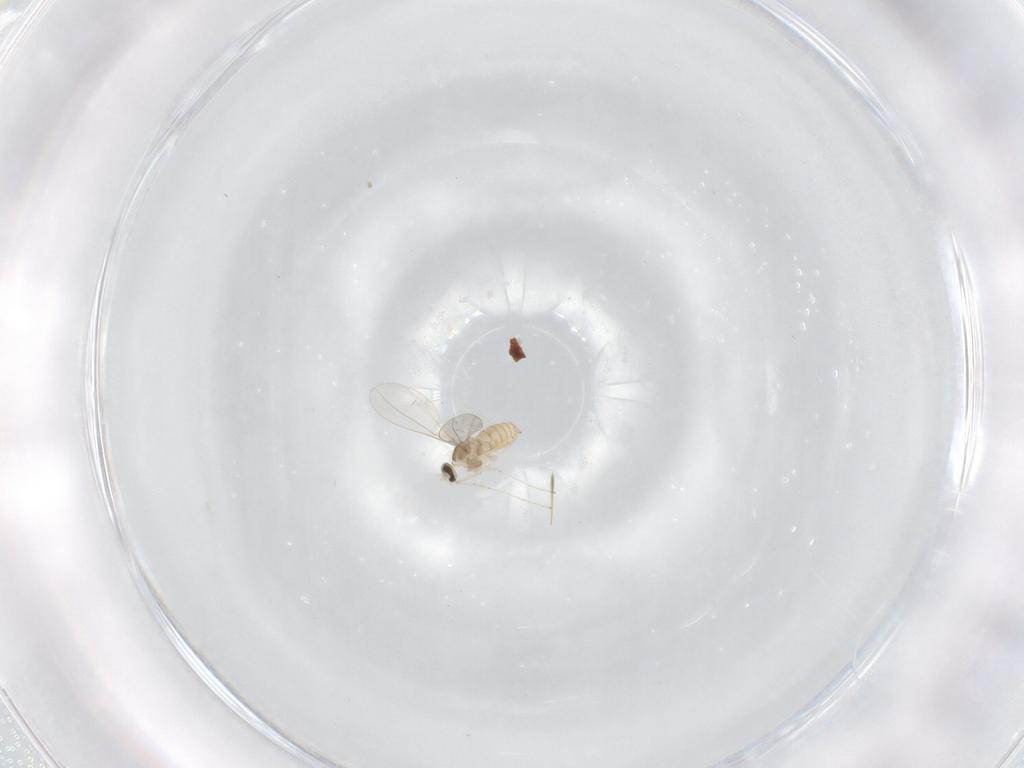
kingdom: Animalia
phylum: Arthropoda
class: Insecta
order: Diptera
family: Cecidomyiidae
